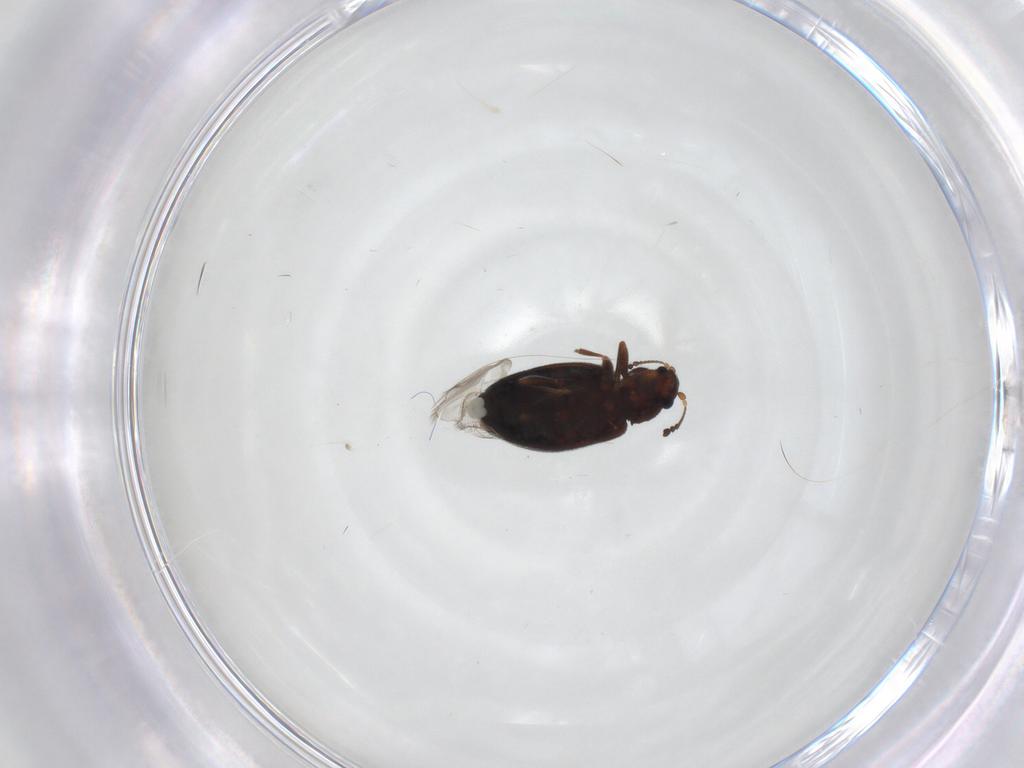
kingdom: Animalia
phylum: Arthropoda
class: Insecta
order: Coleoptera
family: Latridiidae
